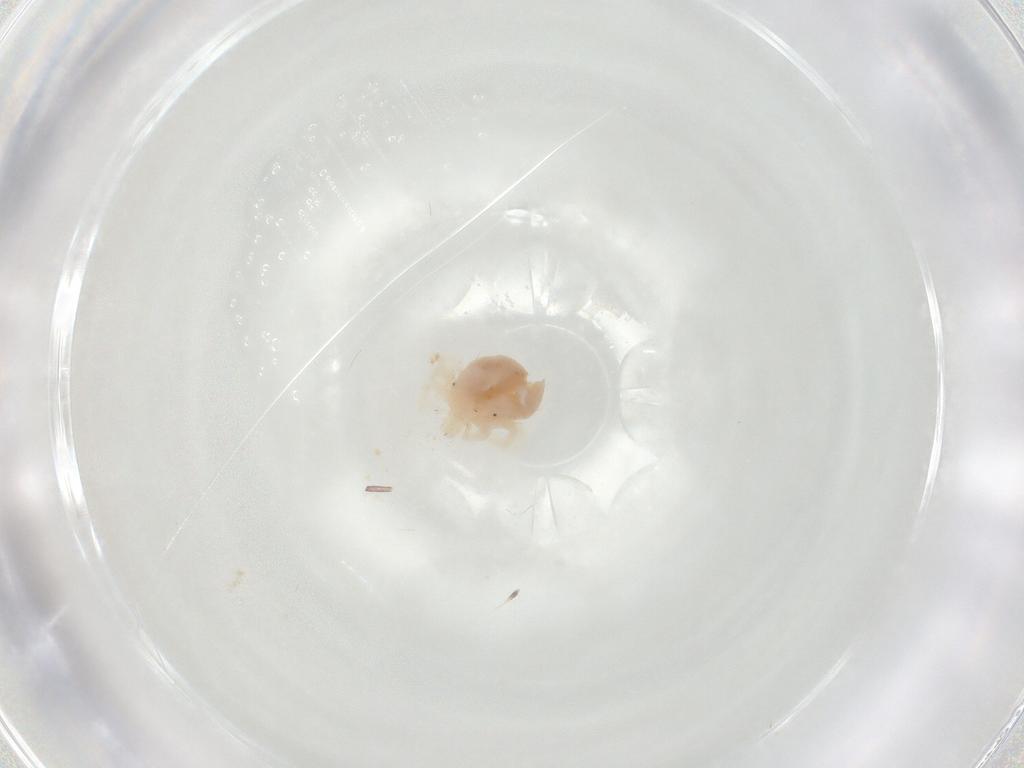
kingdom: Animalia
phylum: Arthropoda
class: Arachnida
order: Trombidiformes
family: Anystidae
